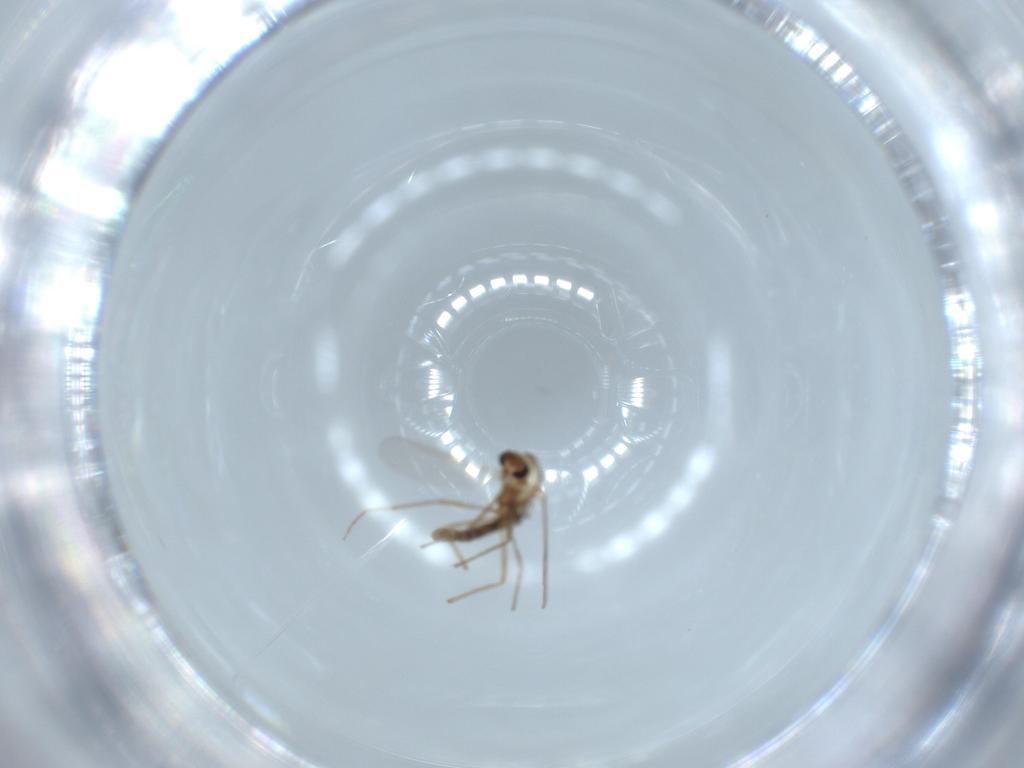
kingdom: Animalia
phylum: Arthropoda
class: Insecta
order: Diptera
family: Chironomidae
